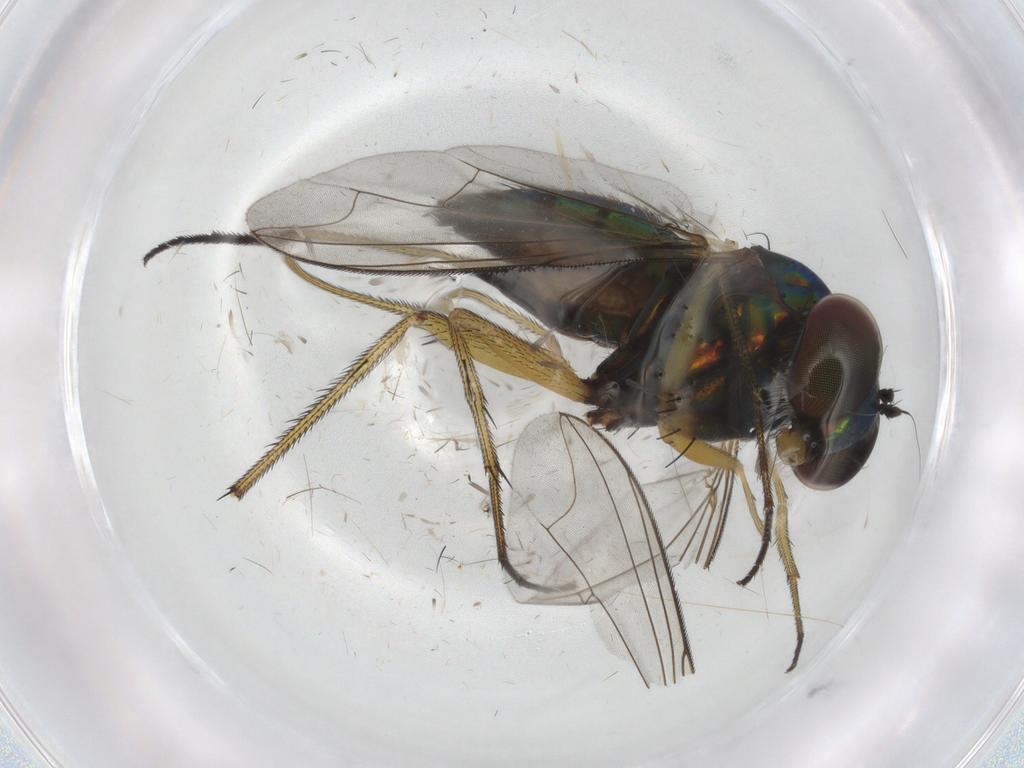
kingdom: Animalia
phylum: Arthropoda
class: Insecta
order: Diptera
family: Dolichopodidae
